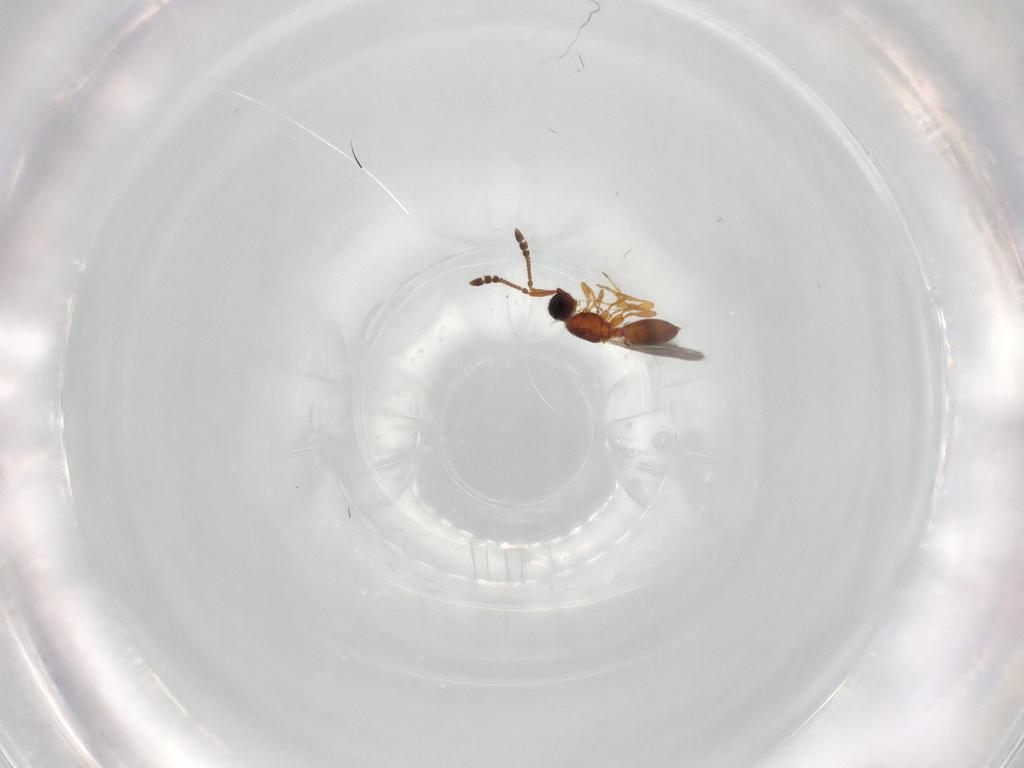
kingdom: Animalia
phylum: Arthropoda
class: Insecta
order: Hymenoptera
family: Diapriidae
